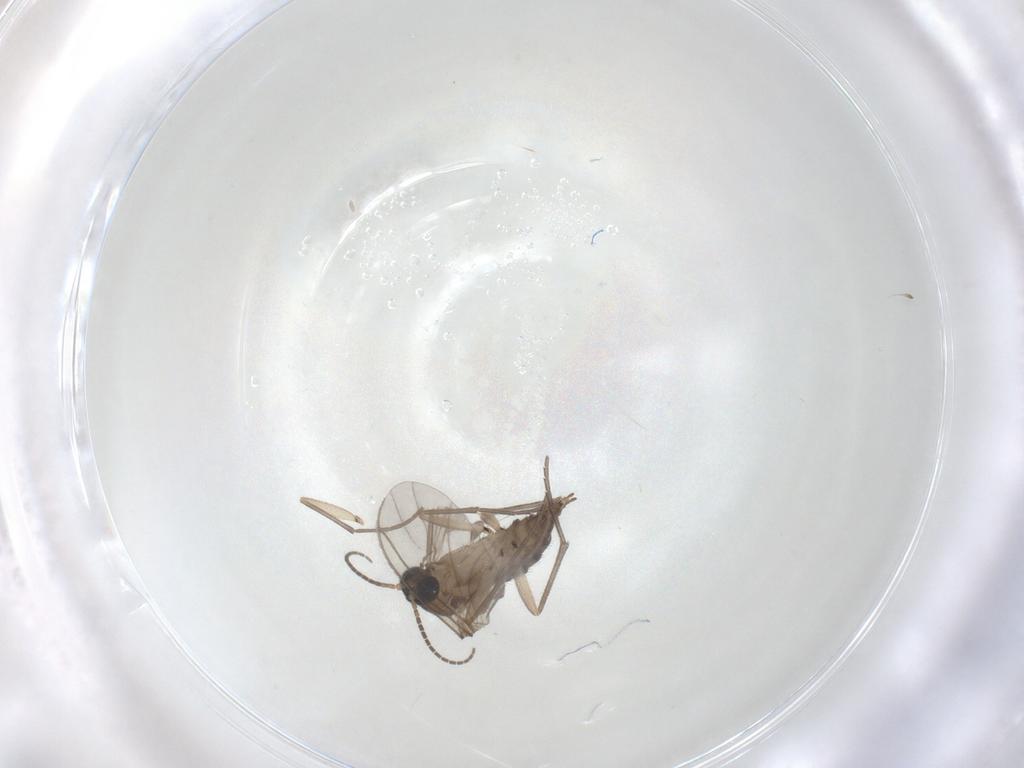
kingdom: Animalia
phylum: Arthropoda
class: Insecta
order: Diptera
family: Sciaridae
